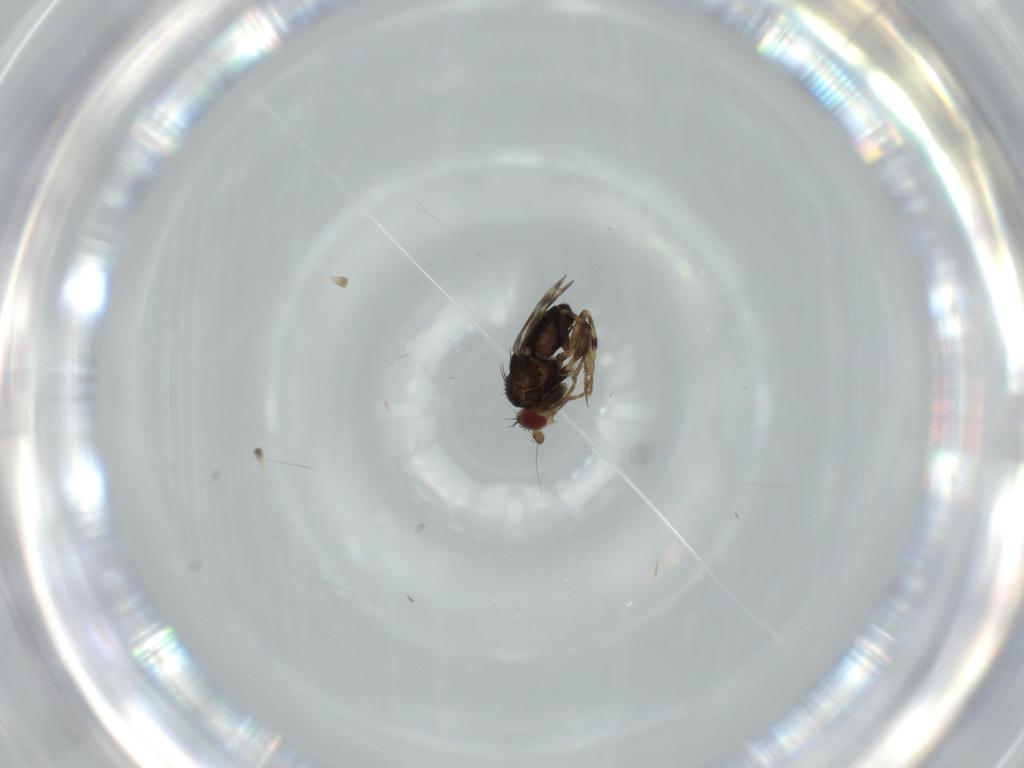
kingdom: Animalia
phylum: Arthropoda
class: Insecta
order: Diptera
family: Sphaeroceridae
